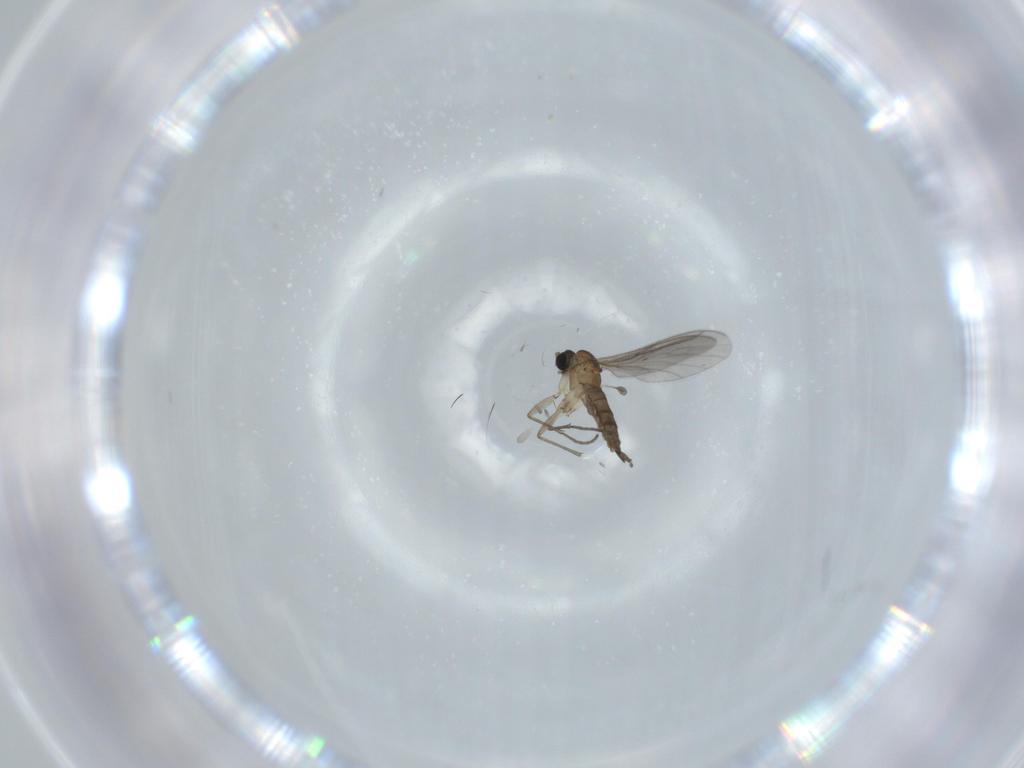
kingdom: Animalia
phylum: Arthropoda
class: Insecta
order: Diptera
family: Sciaridae
